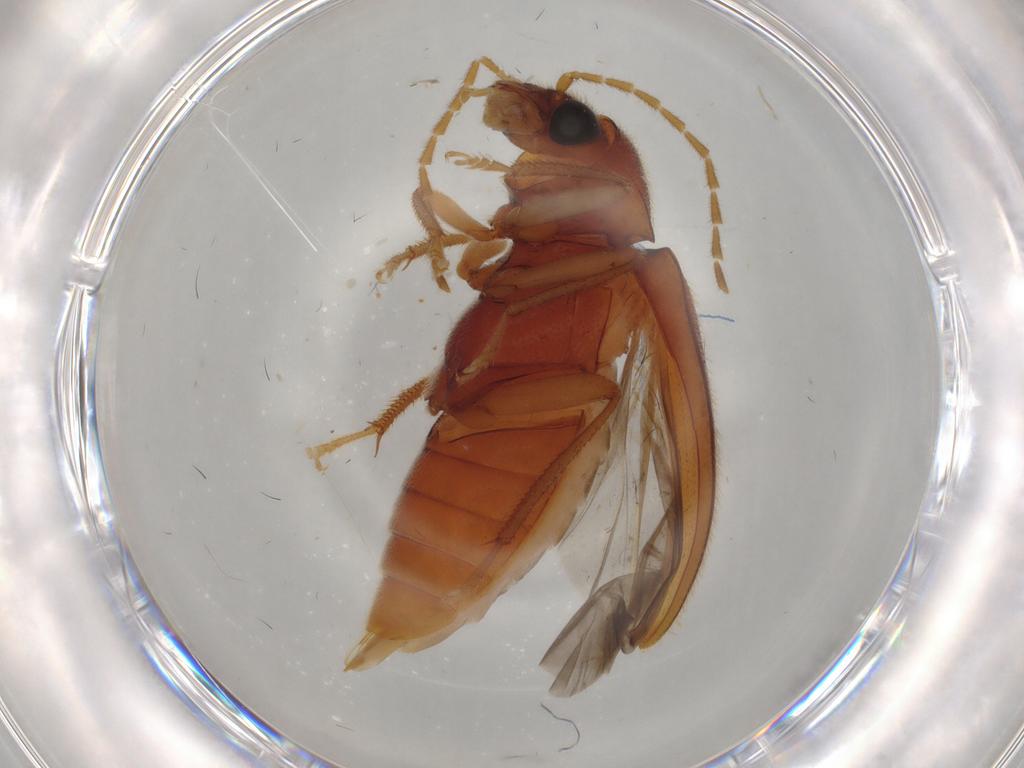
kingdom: Animalia
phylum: Arthropoda
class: Insecta
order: Coleoptera
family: Ptilodactylidae
